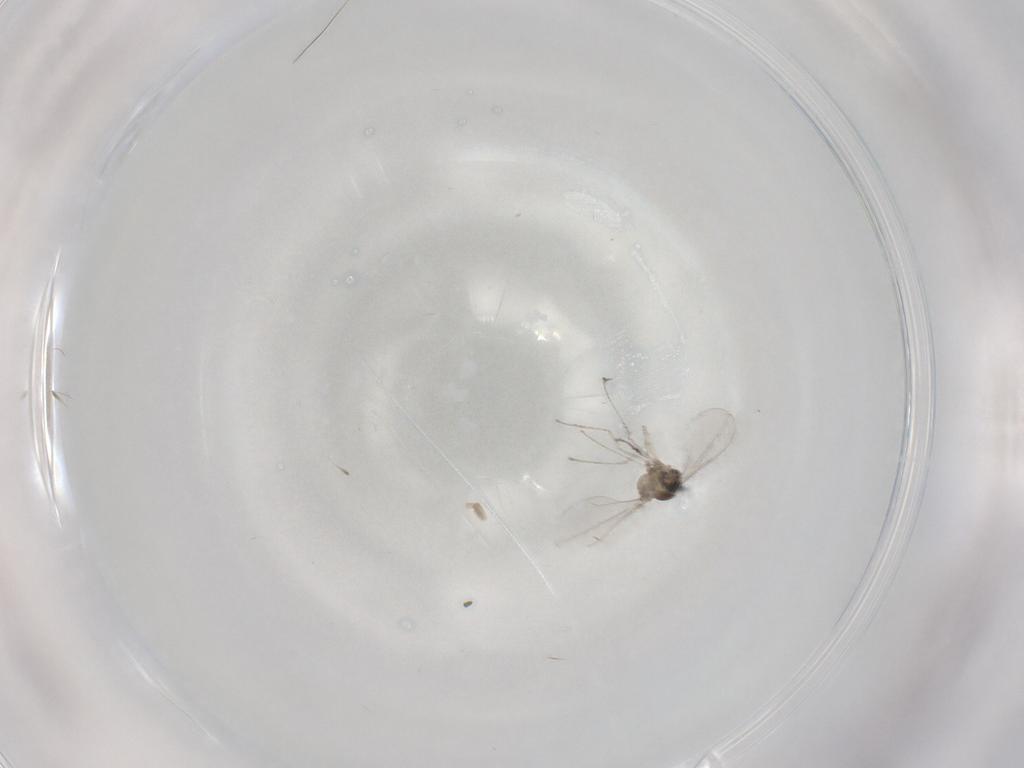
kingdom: Animalia
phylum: Arthropoda
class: Insecta
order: Diptera
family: Cecidomyiidae
